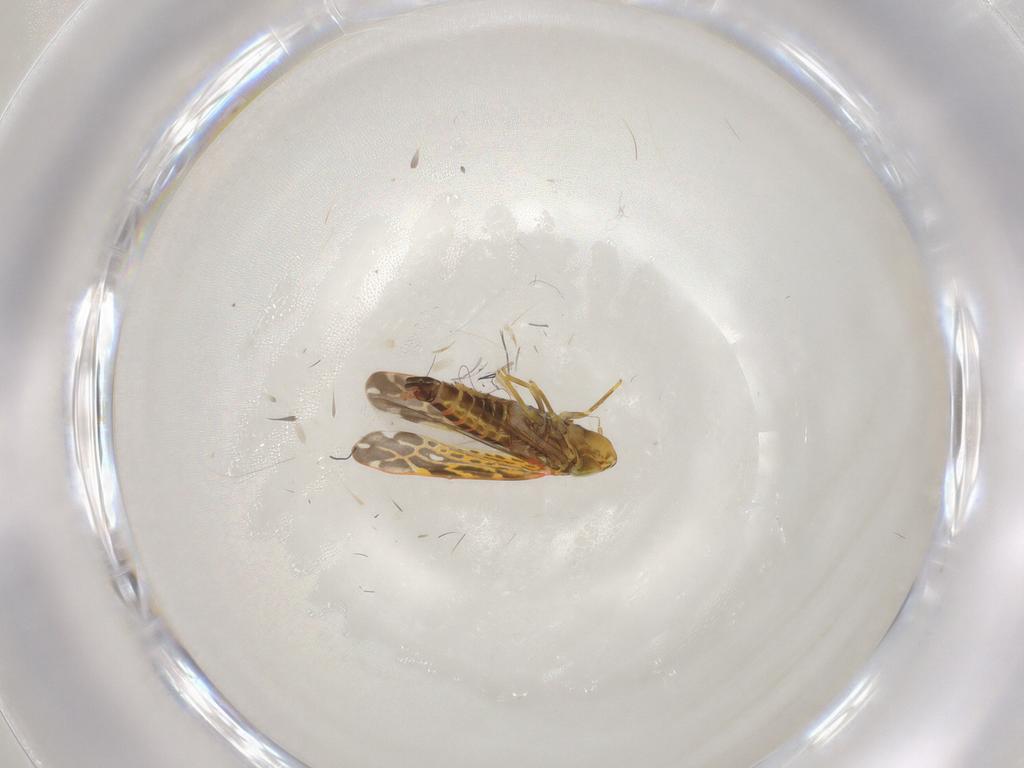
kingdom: Animalia
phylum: Arthropoda
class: Insecta
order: Hemiptera
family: Cicadellidae
